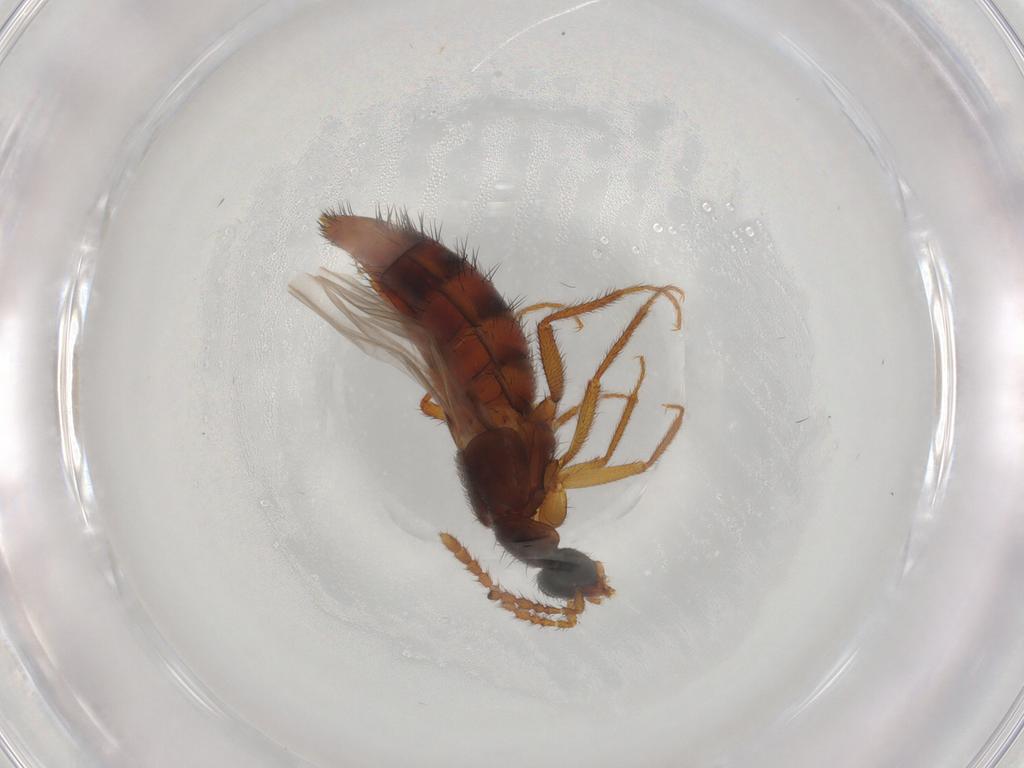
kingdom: Animalia
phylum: Arthropoda
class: Insecta
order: Coleoptera
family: Staphylinidae
